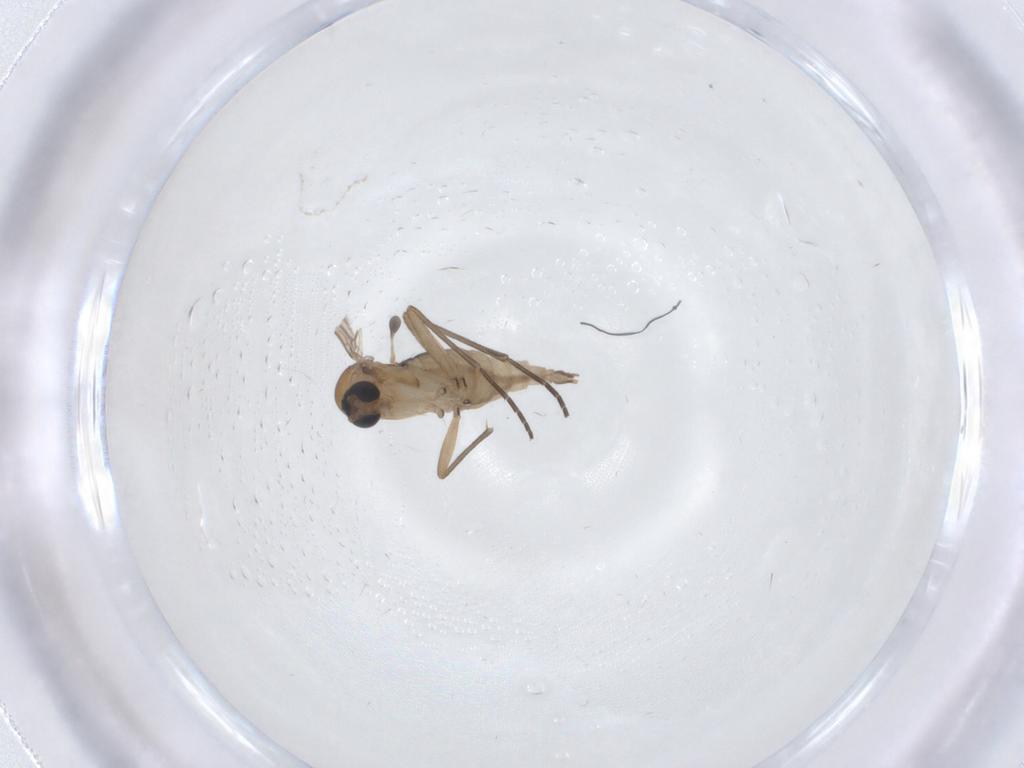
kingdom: Animalia
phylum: Arthropoda
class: Insecta
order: Diptera
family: Sciaridae
